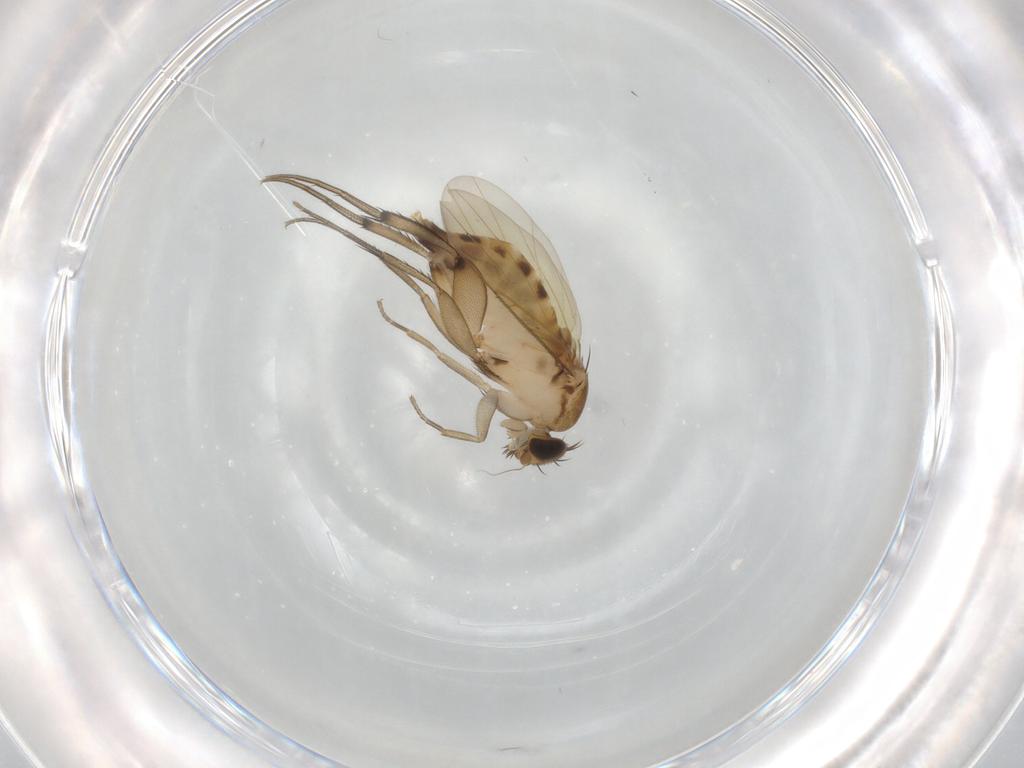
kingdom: Animalia
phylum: Arthropoda
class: Insecta
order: Diptera
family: Phoridae
